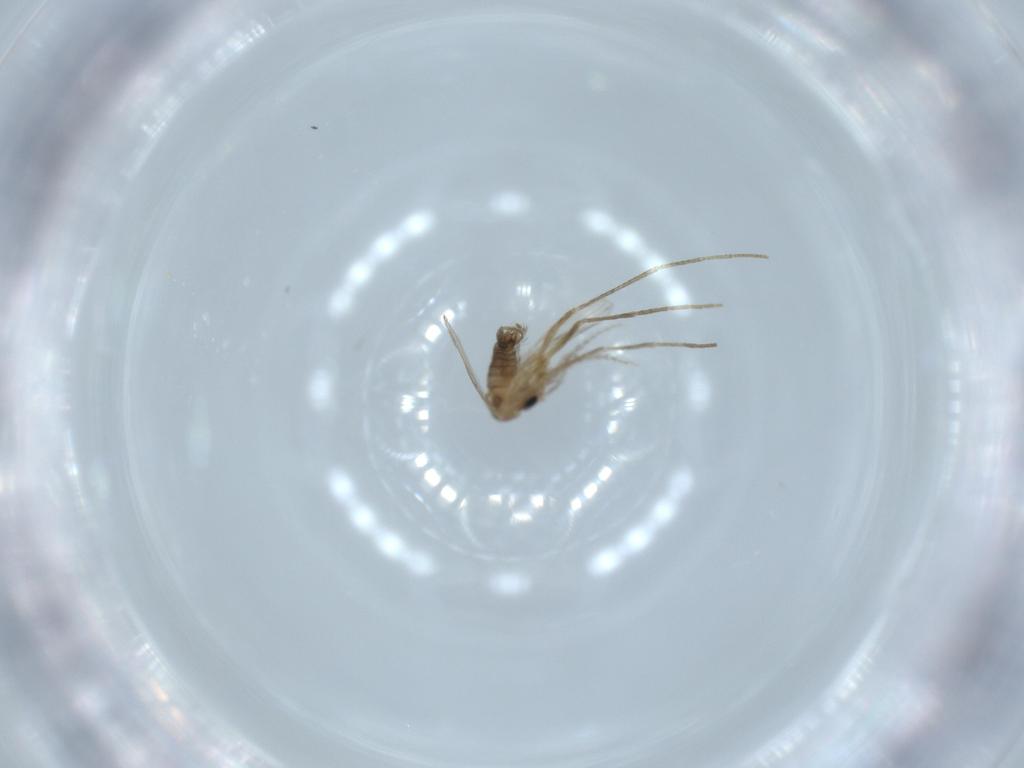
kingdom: Animalia
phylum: Arthropoda
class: Insecta
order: Diptera
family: Psychodidae
